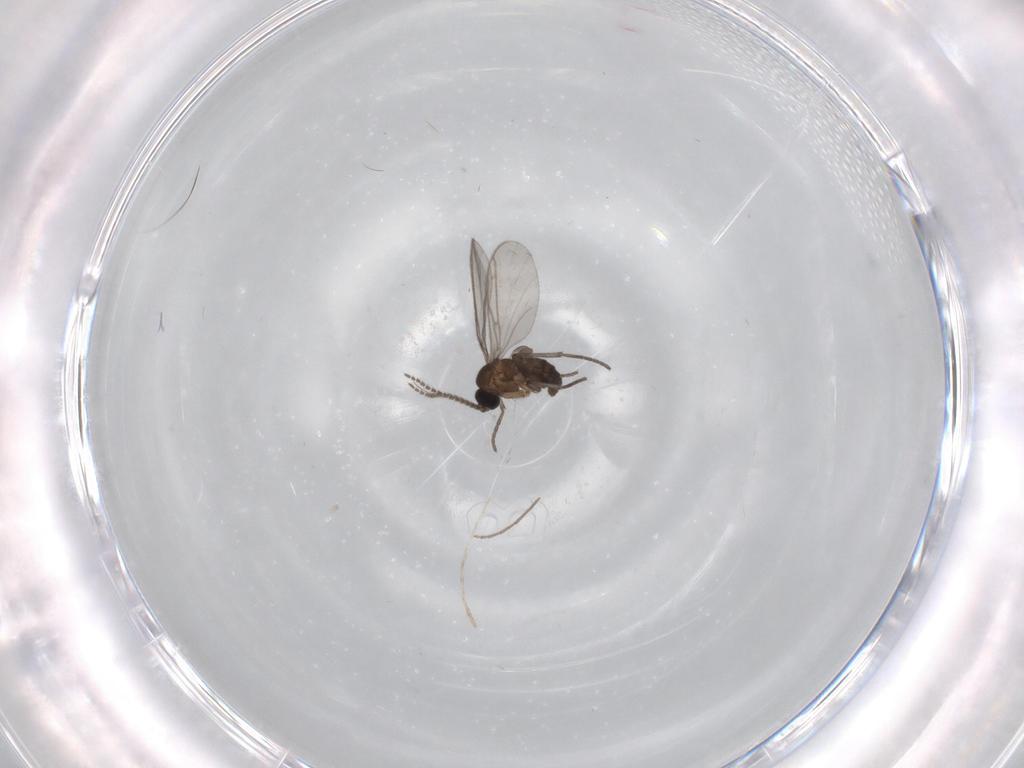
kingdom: Animalia
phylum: Arthropoda
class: Insecta
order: Diptera
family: Chironomidae
